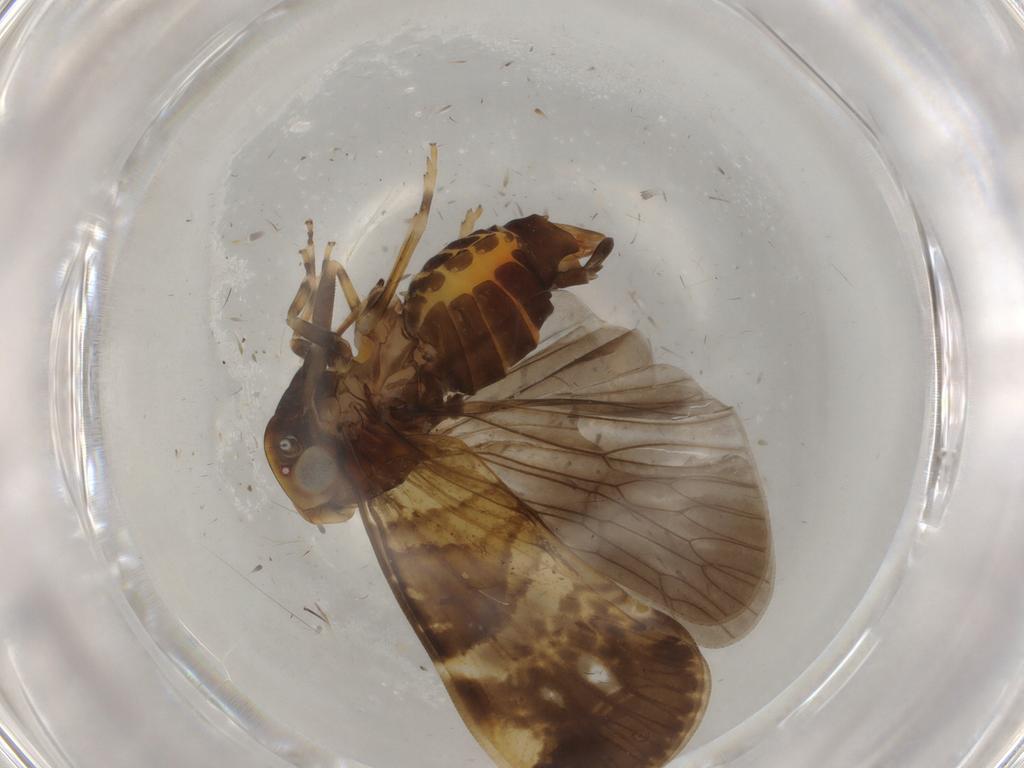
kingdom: Animalia
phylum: Arthropoda
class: Insecta
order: Hemiptera
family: Cixiidae
